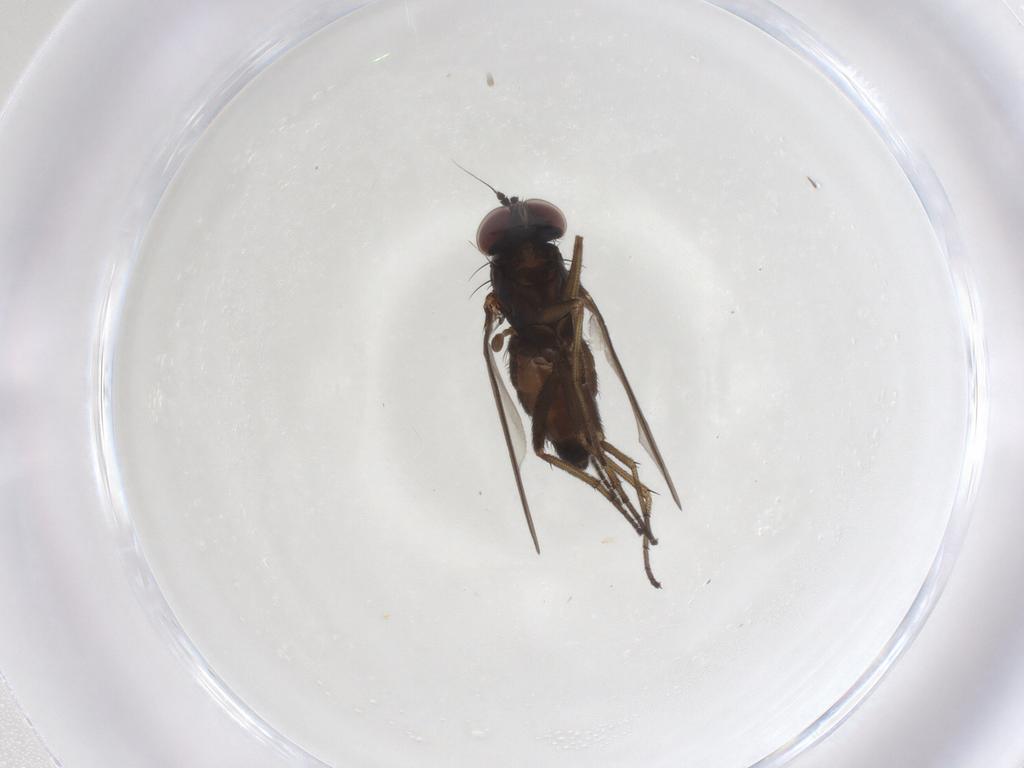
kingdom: Animalia
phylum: Arthropoda
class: Insecta
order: Diptera
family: Dolichopodidae
